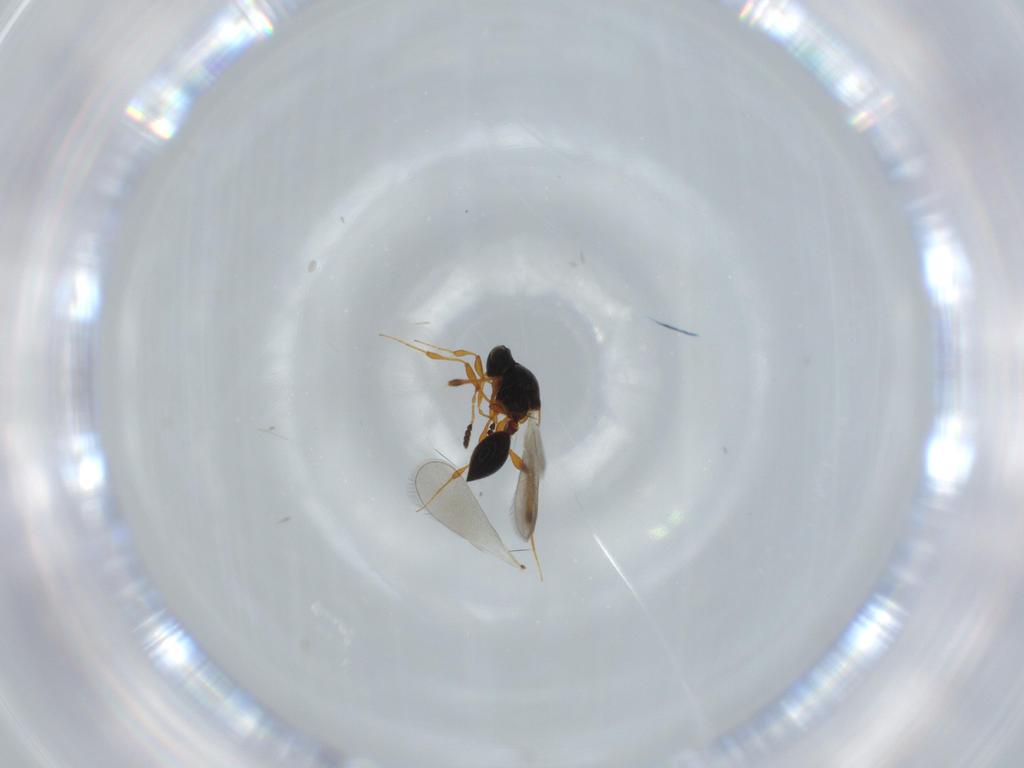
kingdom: Animalia
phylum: Arthropoda
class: Insecta
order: Hymenoptera
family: Platygastridae
